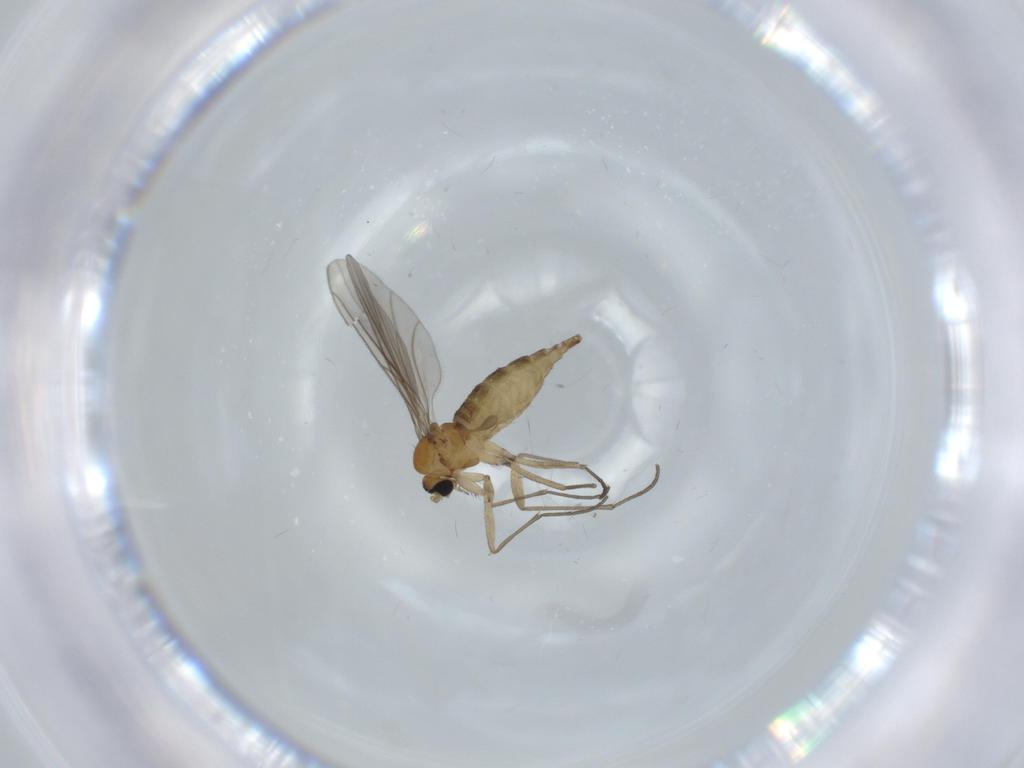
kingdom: Animalia
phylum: Arthropoda
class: Insecta
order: Diptera
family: Sciaridae
